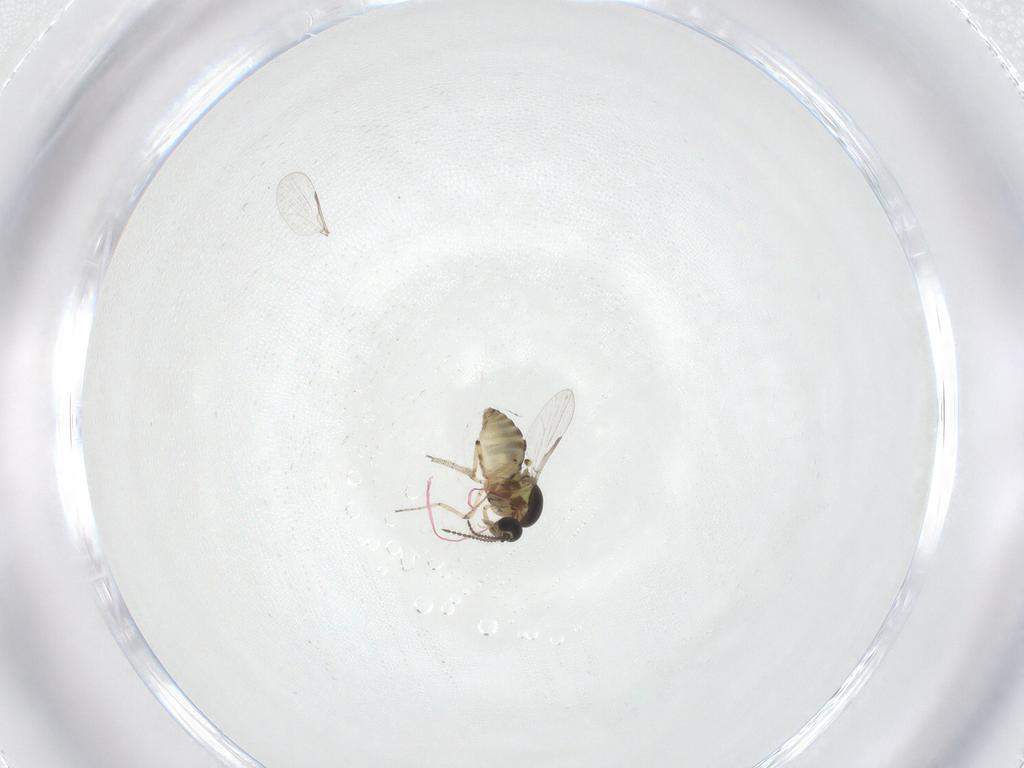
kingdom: Animalia
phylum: Arthropoda
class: Insecta
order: Diptera
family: Ceratopogonidae
